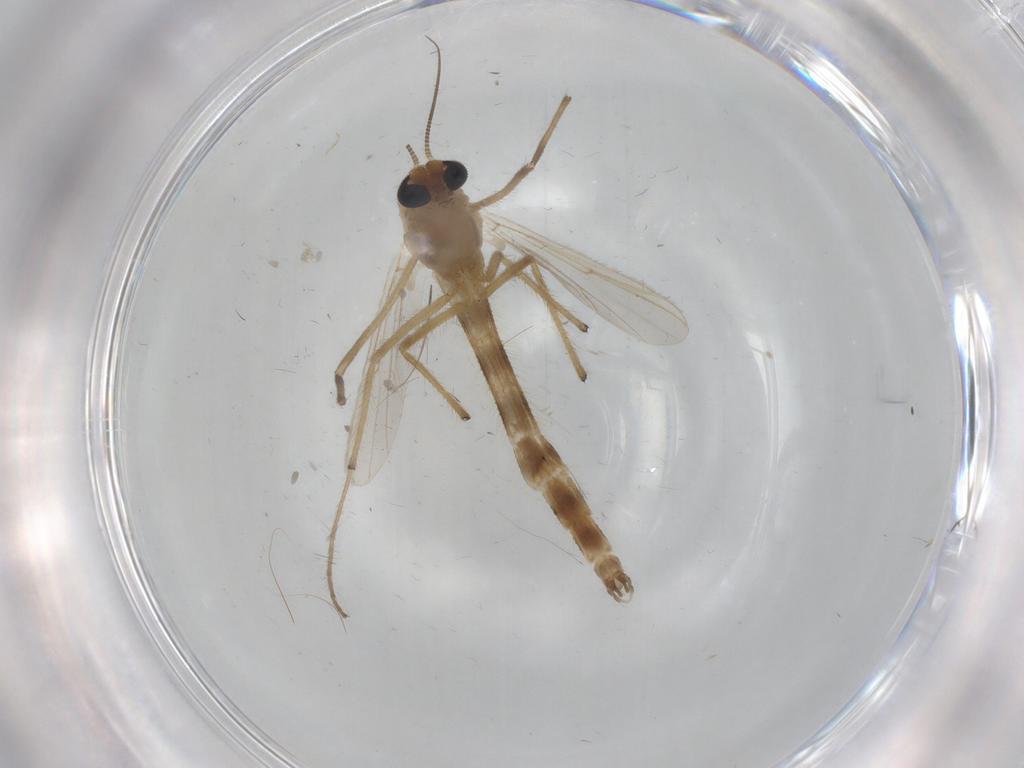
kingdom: Animalia
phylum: Arthropoda
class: Insecta
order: Diptera
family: Chironomidae
